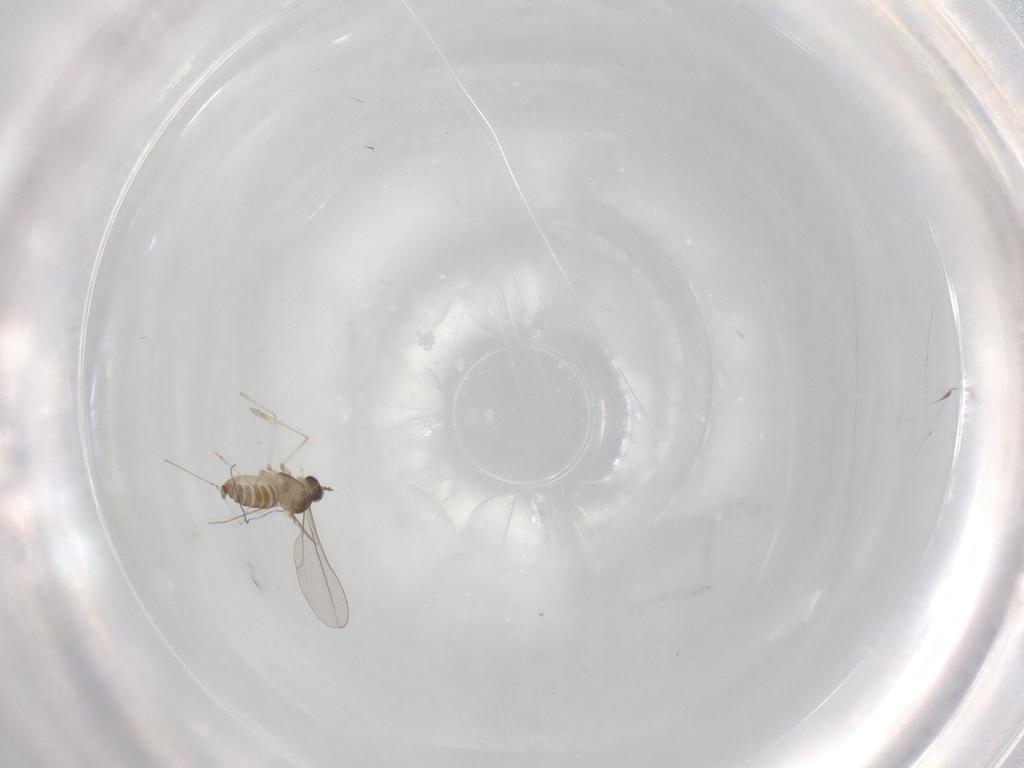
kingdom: Animalia
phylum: Arthropoda
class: Insecta
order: Diptera
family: Cecidomyiidae
